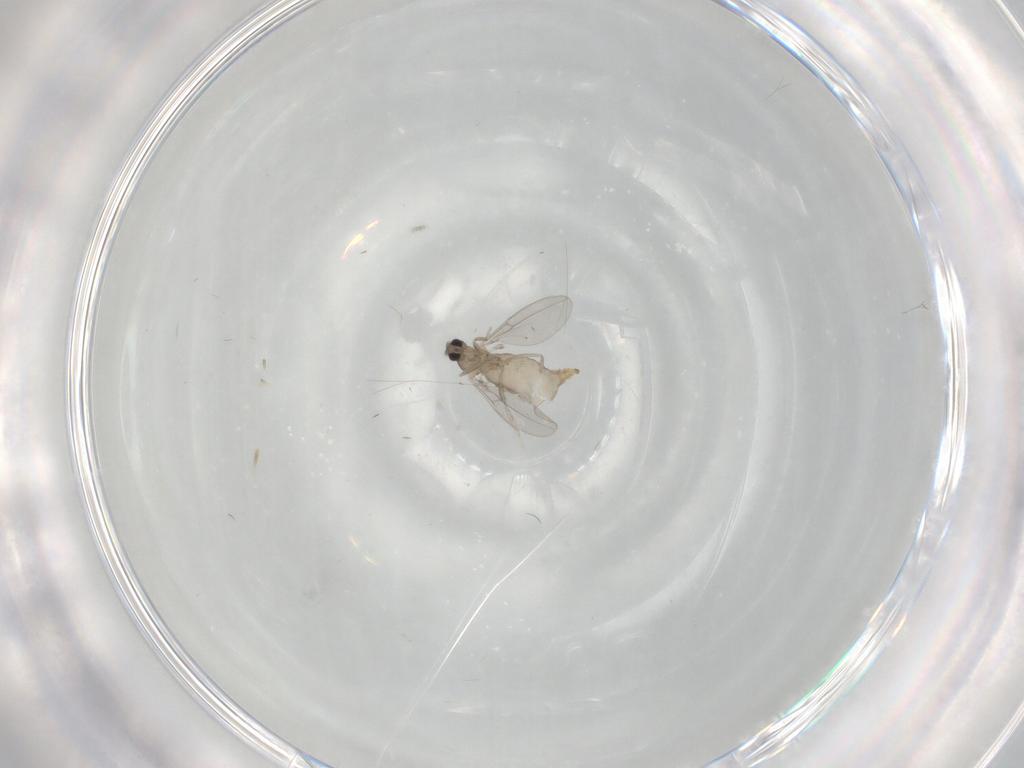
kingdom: Animalia
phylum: Arthropoda
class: Insecta
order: Diptera
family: Cecidomyiidae
